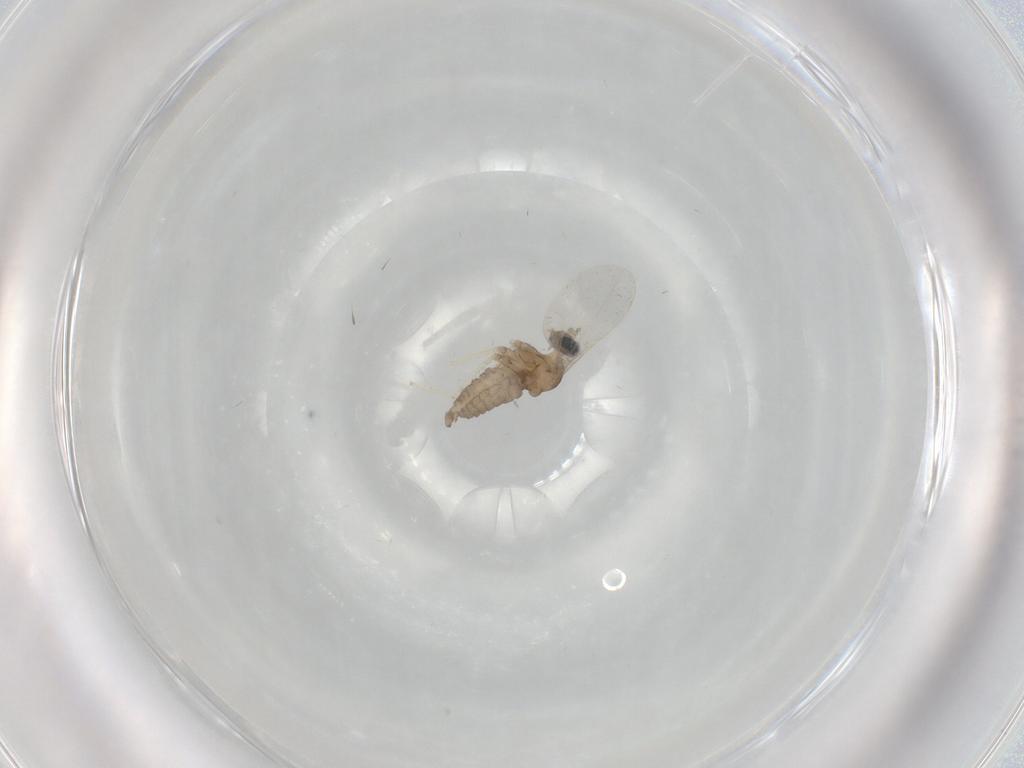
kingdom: Animalia
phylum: Arthropoda
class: Insecta
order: Diptera
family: Cecidomyiidae
